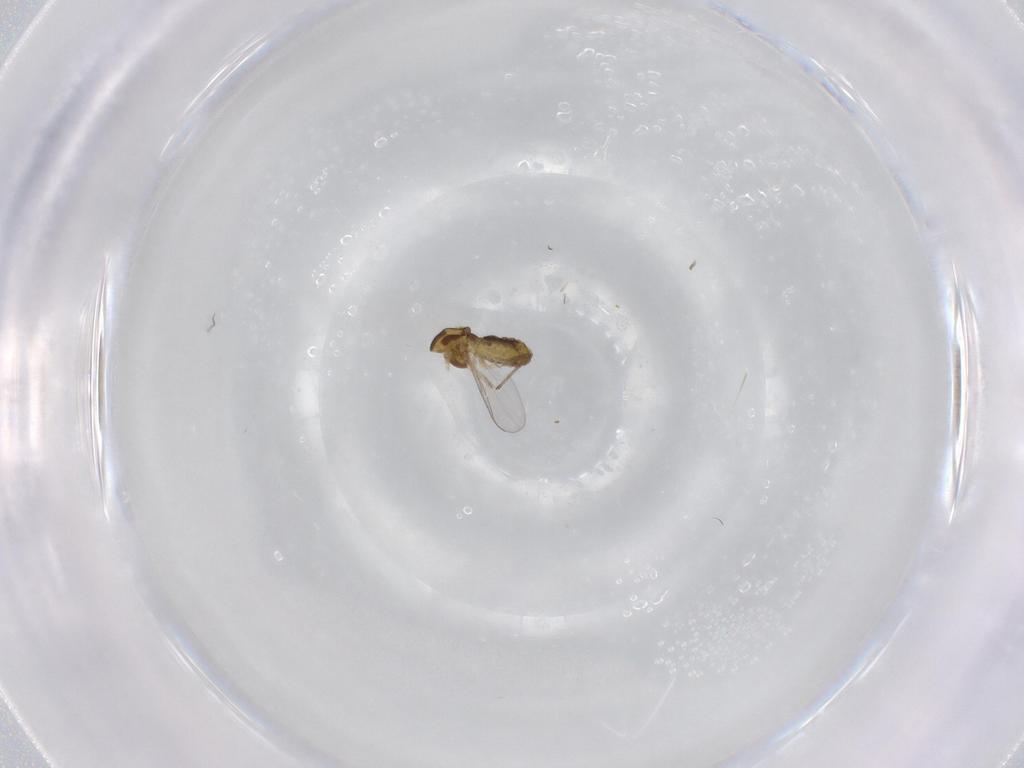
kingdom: Animalia
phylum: Arthropoda
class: Insecta
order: Diptera
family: Chironomidae
